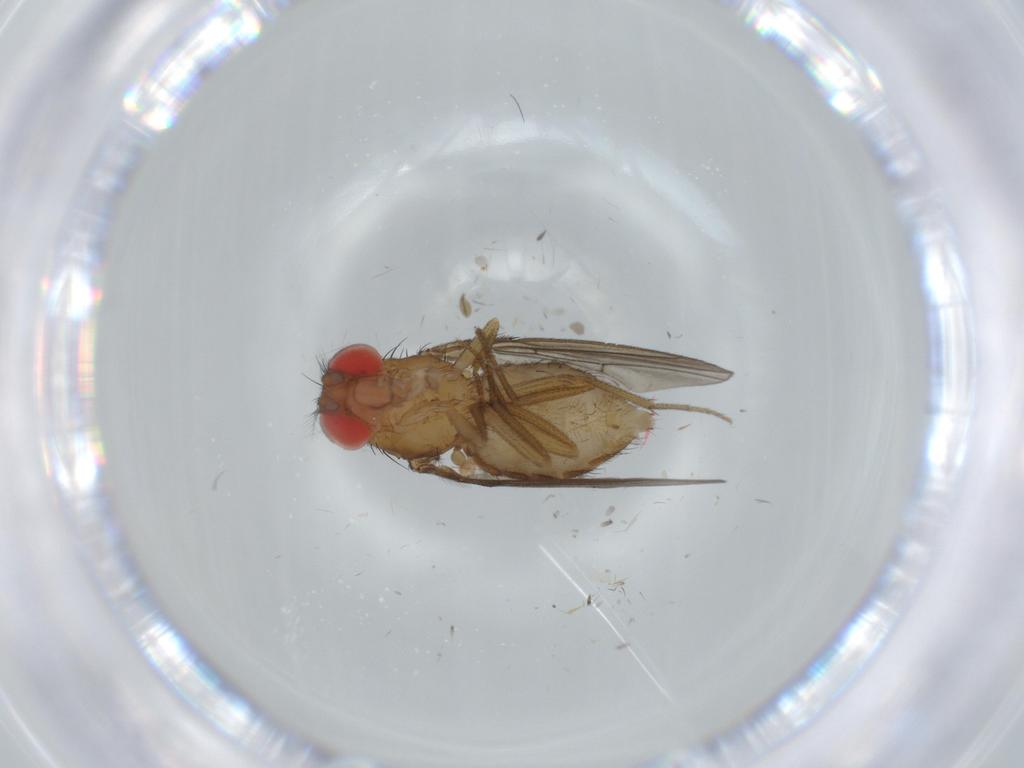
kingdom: Animalia
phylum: Arthropoda
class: Insecta
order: Diptera
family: Drosophilidae
